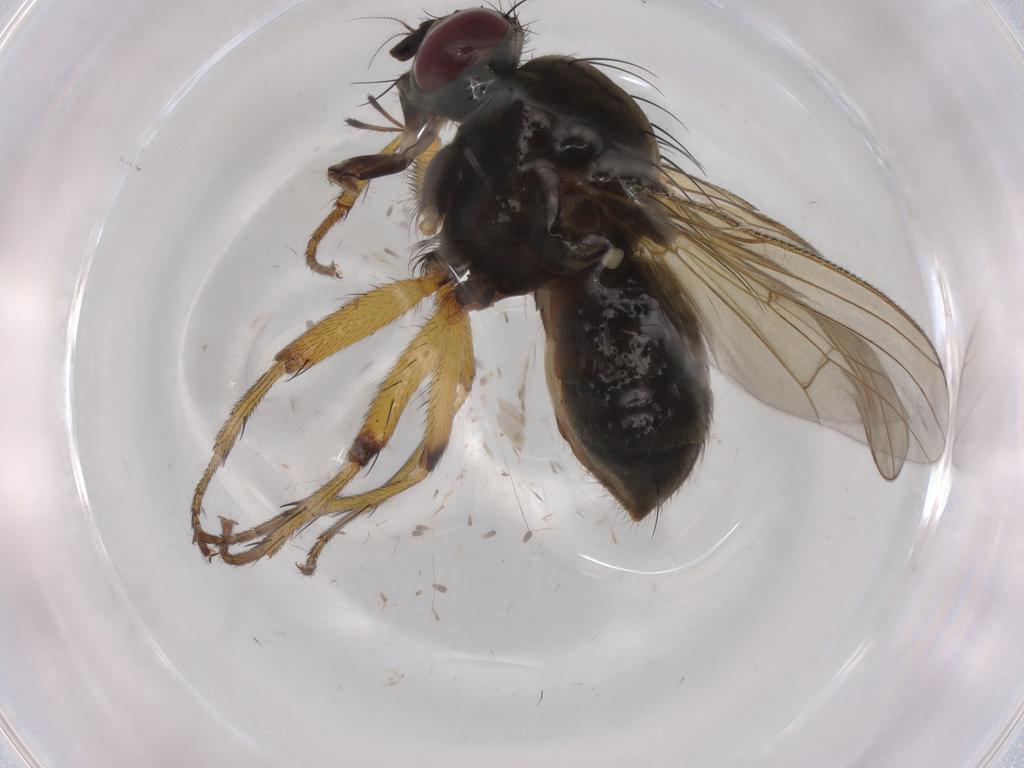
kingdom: Animalia
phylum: Arthropoda
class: Insecta
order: Diptera
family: Muscidae
